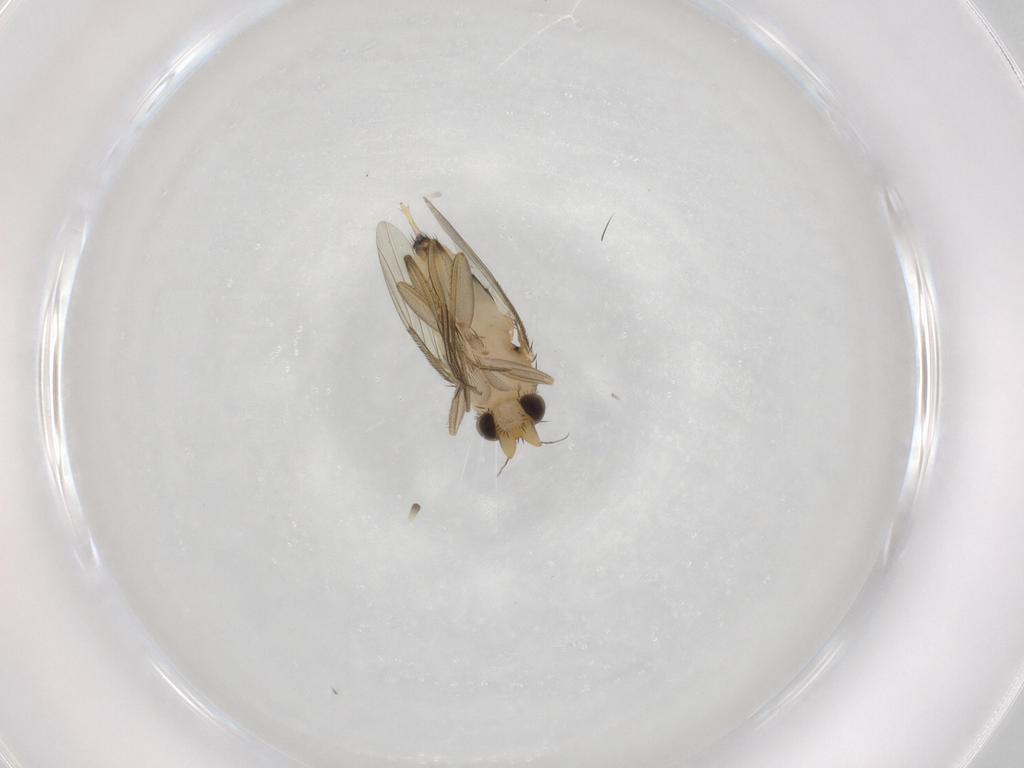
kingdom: Animalia
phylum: Arthropoda
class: Insecta
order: Diptera
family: Phoridae
